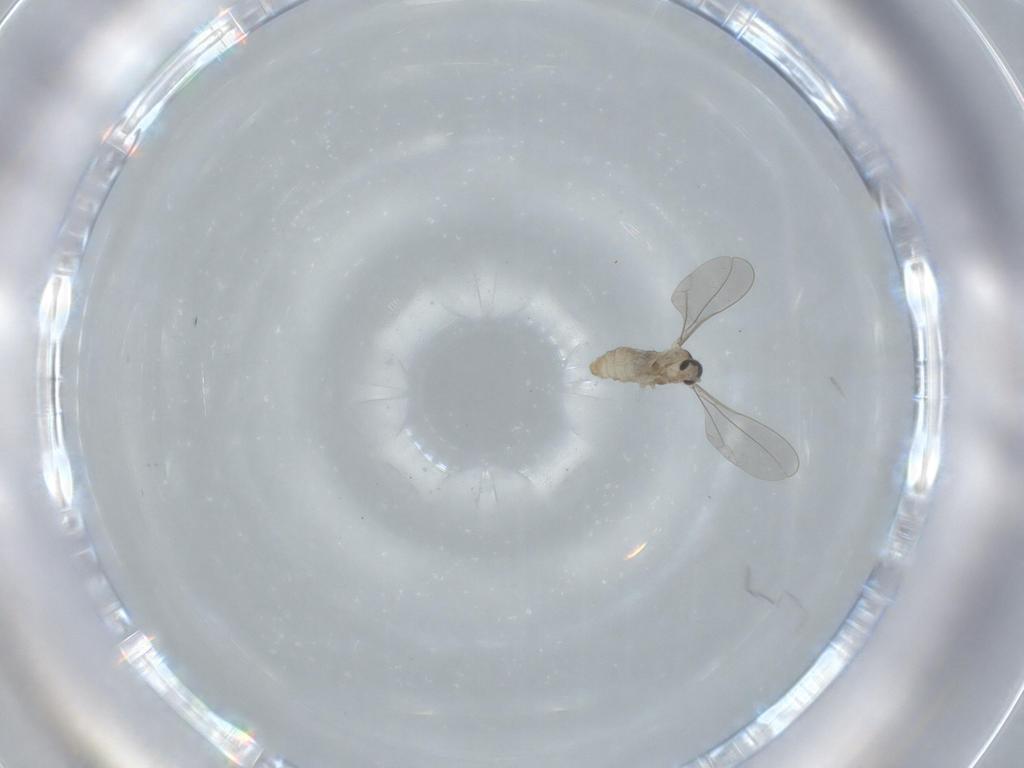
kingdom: Animalia
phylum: Arthropoda
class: Insecta
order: Diptera
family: Cecidomyiidae
